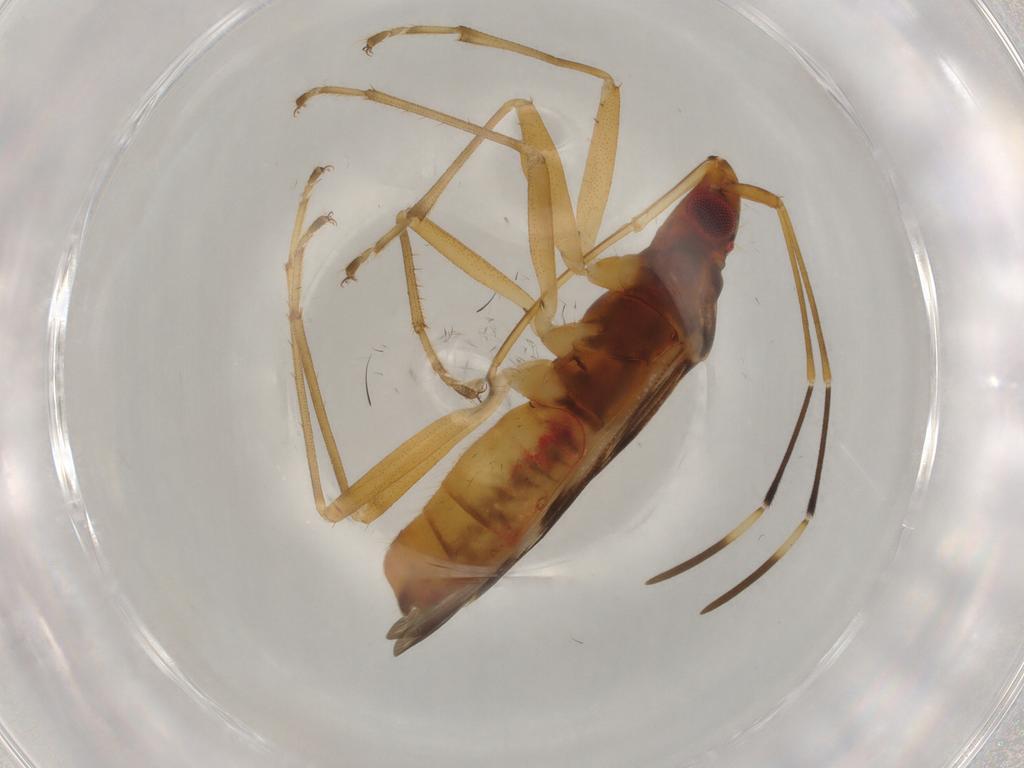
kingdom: Animalia
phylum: Arthropoda
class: Insecta
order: Hemiptera
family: Rhyparochromidae
